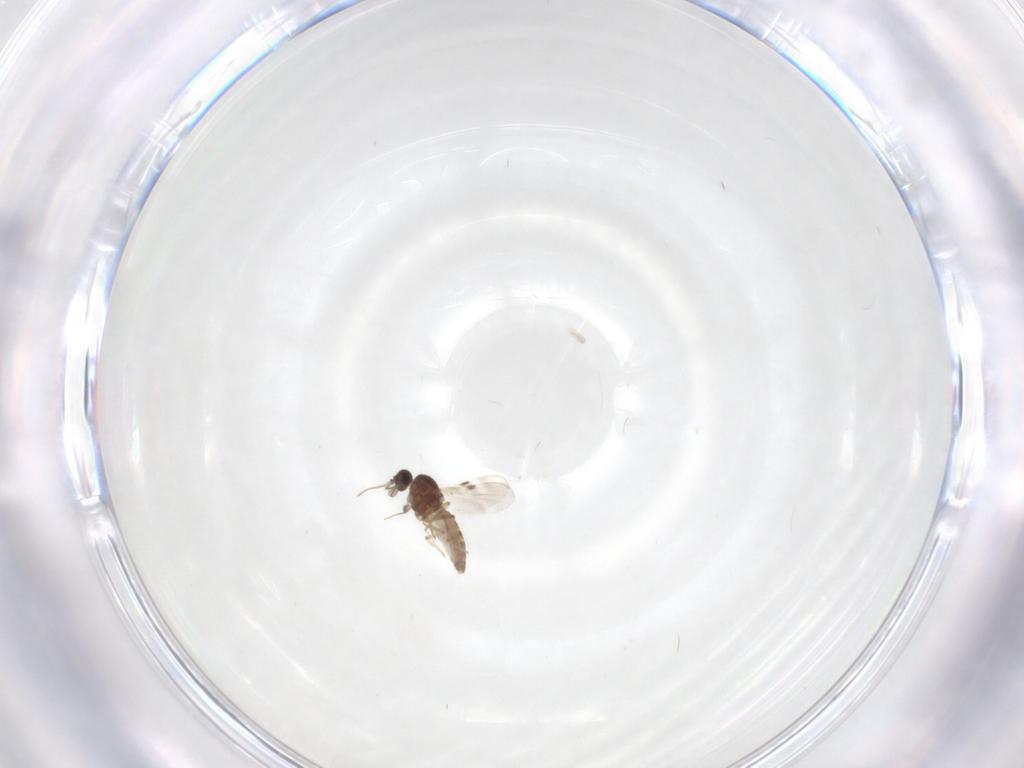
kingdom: Animalia
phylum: Arthropoda
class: Insecta
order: Diptera
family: Cecidomyiidae
